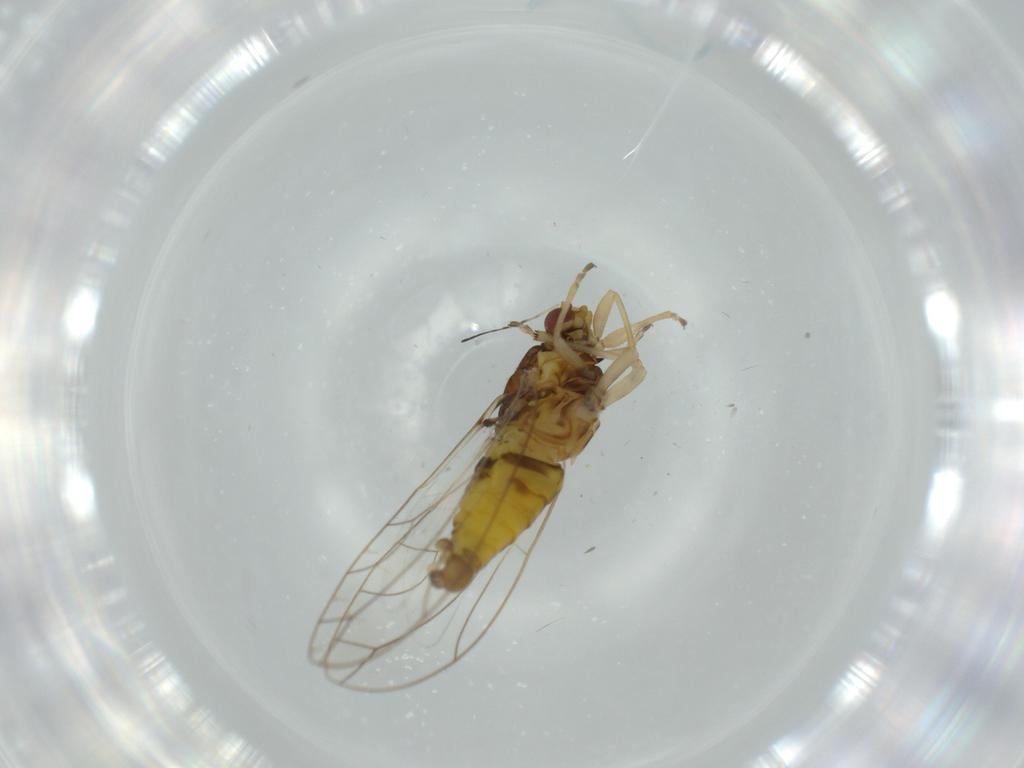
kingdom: Animalia
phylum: Arthropoda
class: Insecta
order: Hemiptera
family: Triozidae
